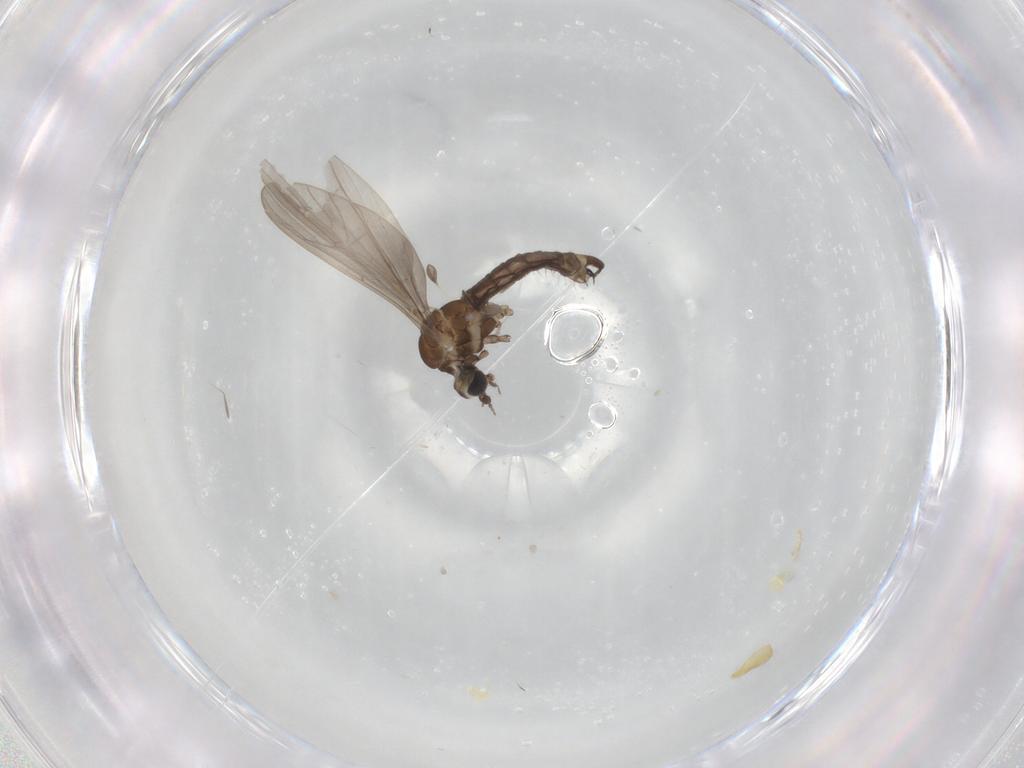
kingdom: Animalia
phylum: Arthropoda
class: Insecta
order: Diptera
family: Limoniidae
